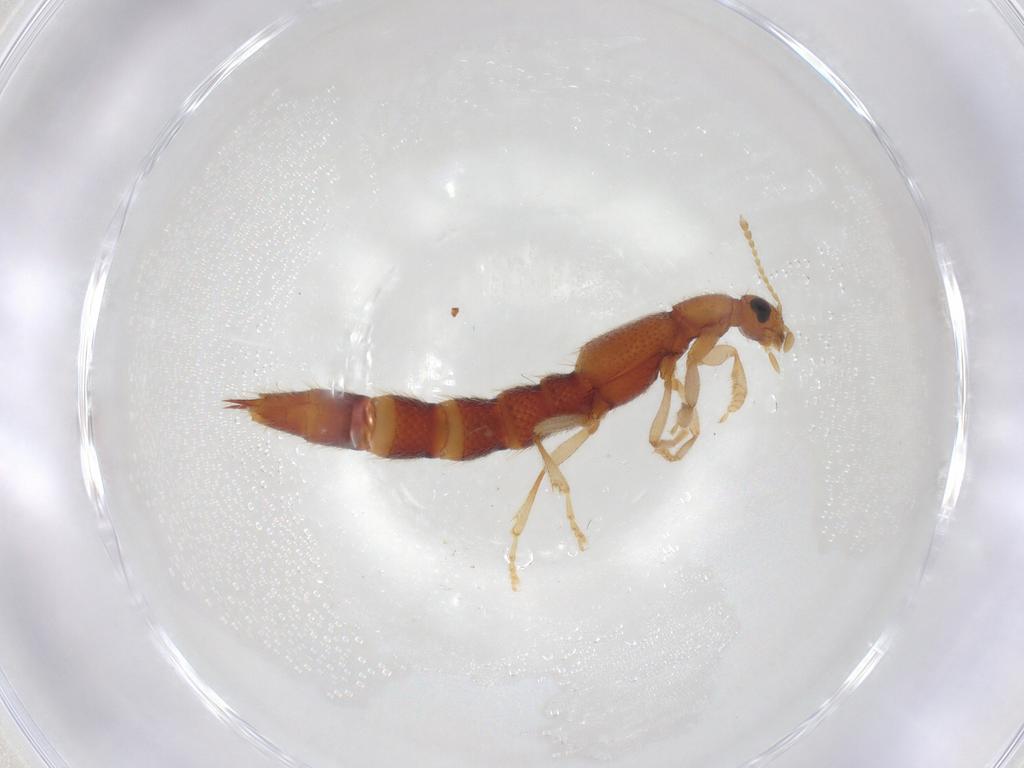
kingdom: Animalia
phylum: Arthropoda
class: Insecta
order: Coleoptera
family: Staphylinidae
